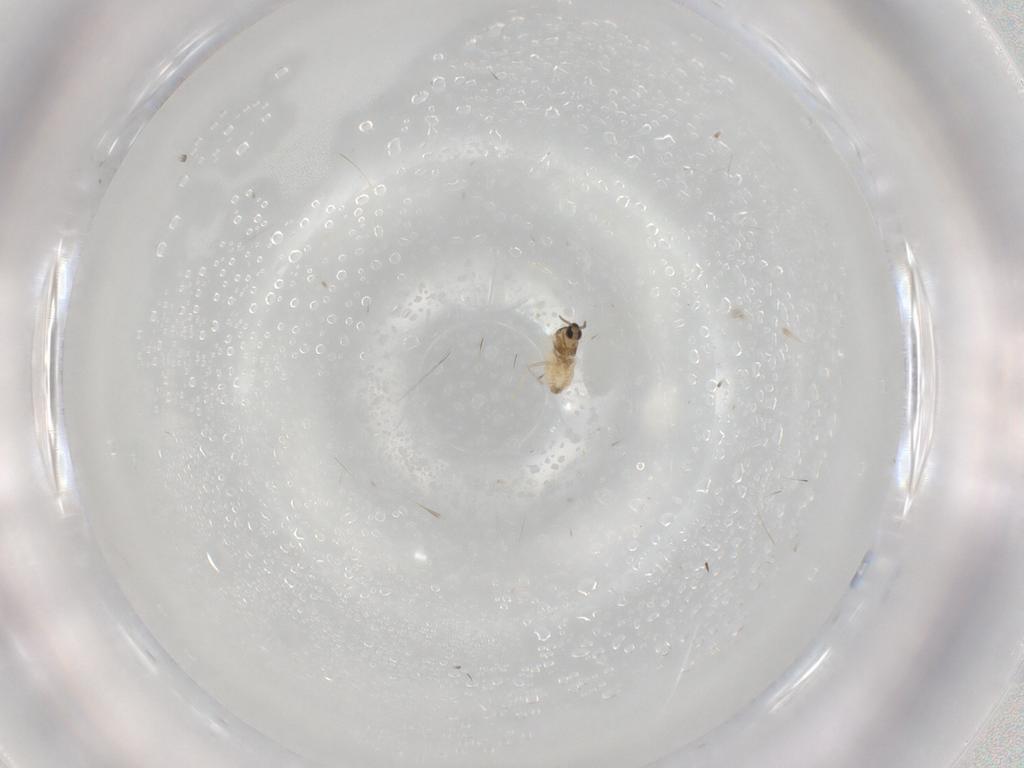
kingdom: Animalia
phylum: Arthropoda
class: Insecta
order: Diptera
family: Cecidomyiidae
